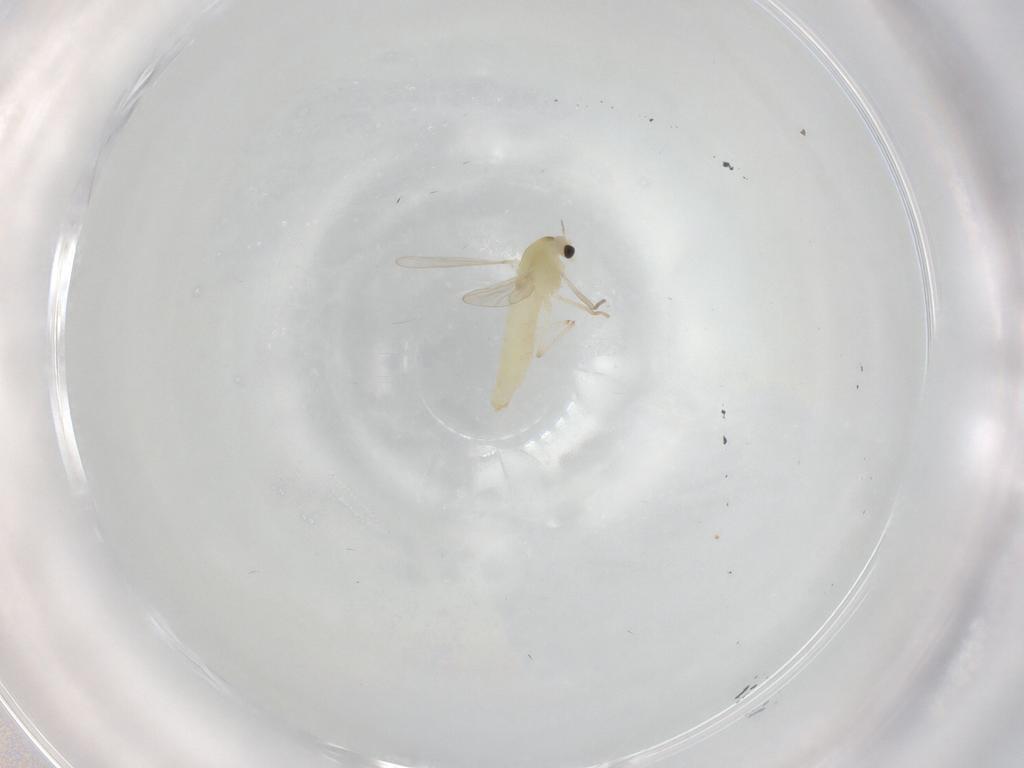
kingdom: Animalia
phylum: Arthropoda
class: Insecta
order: Diptera
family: Chironomidae
